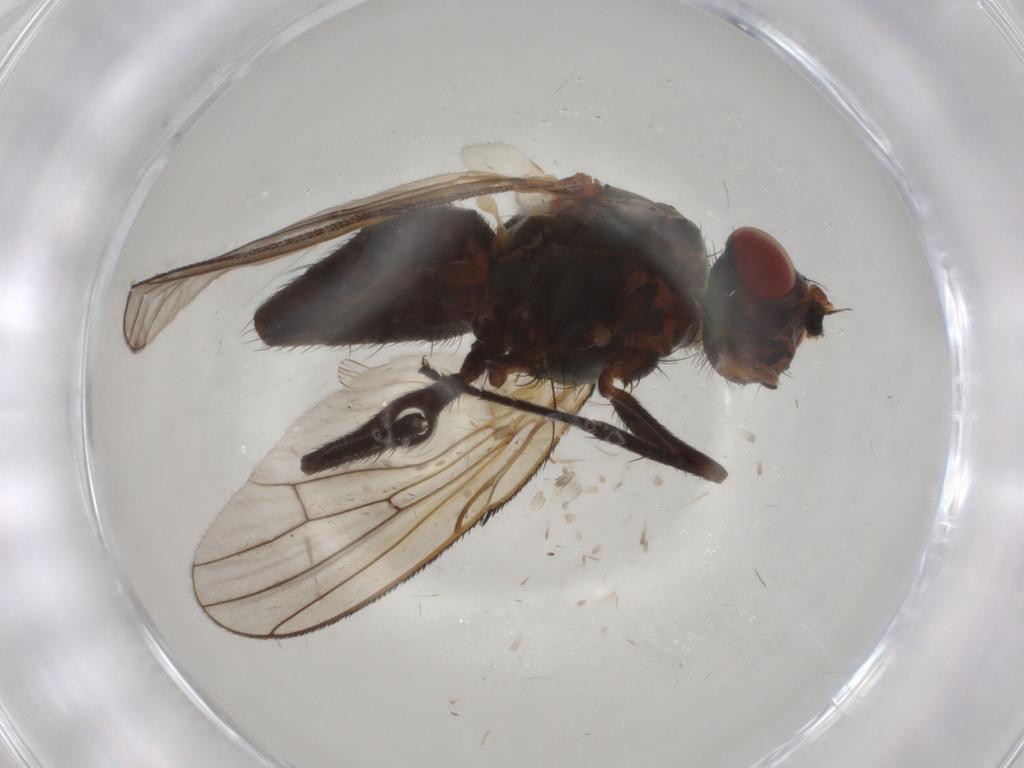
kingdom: Animalia
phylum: Arthropoda
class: Insecta
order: Diptera
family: Anthomyiidae
